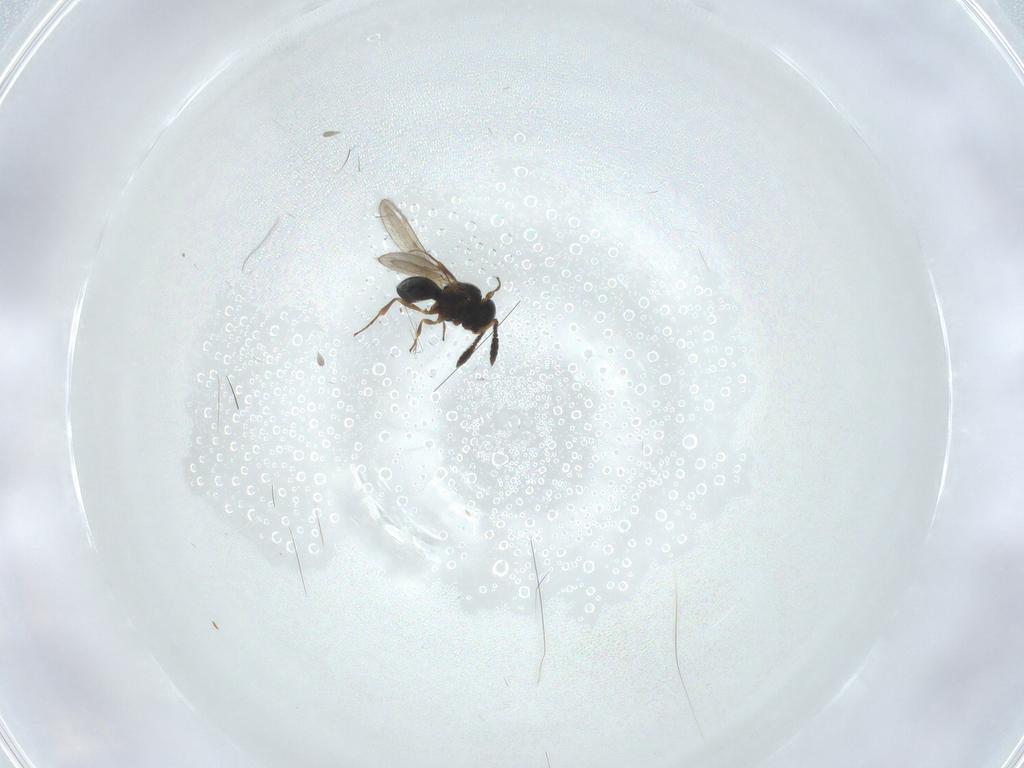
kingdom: Animalia
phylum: Arthropoda
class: Insecta
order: Hymenoptera
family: Scelionidae
